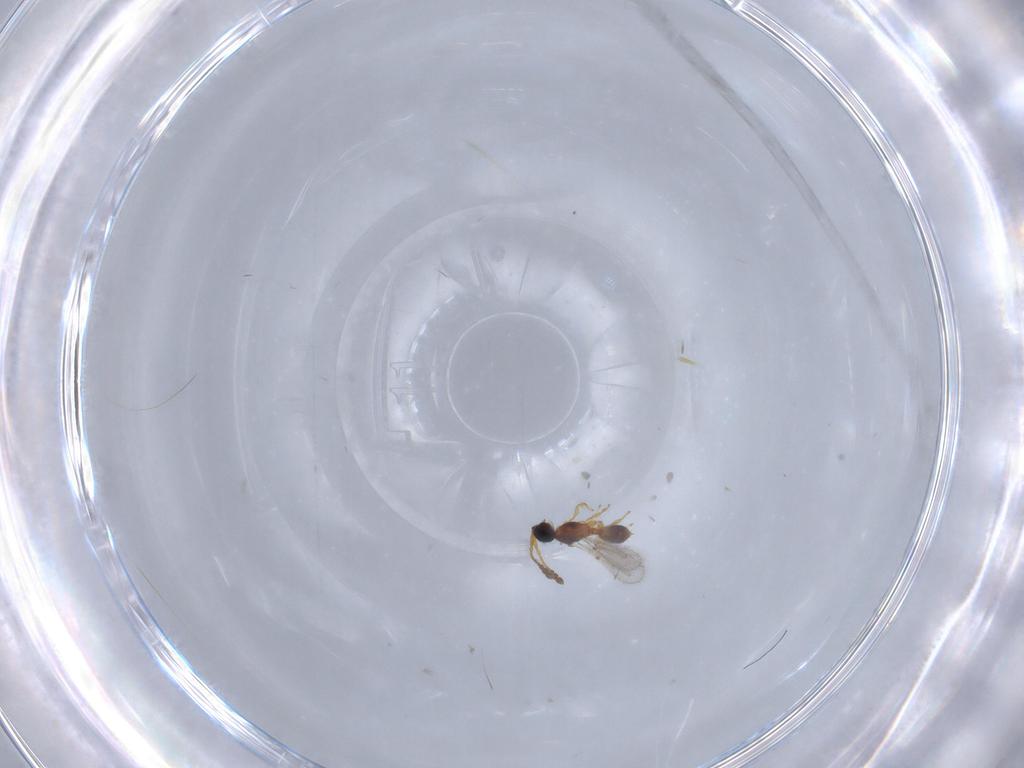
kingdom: Animalia
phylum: Arthropoda
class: Insecta
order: Hymenoptera
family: Diapriidae
